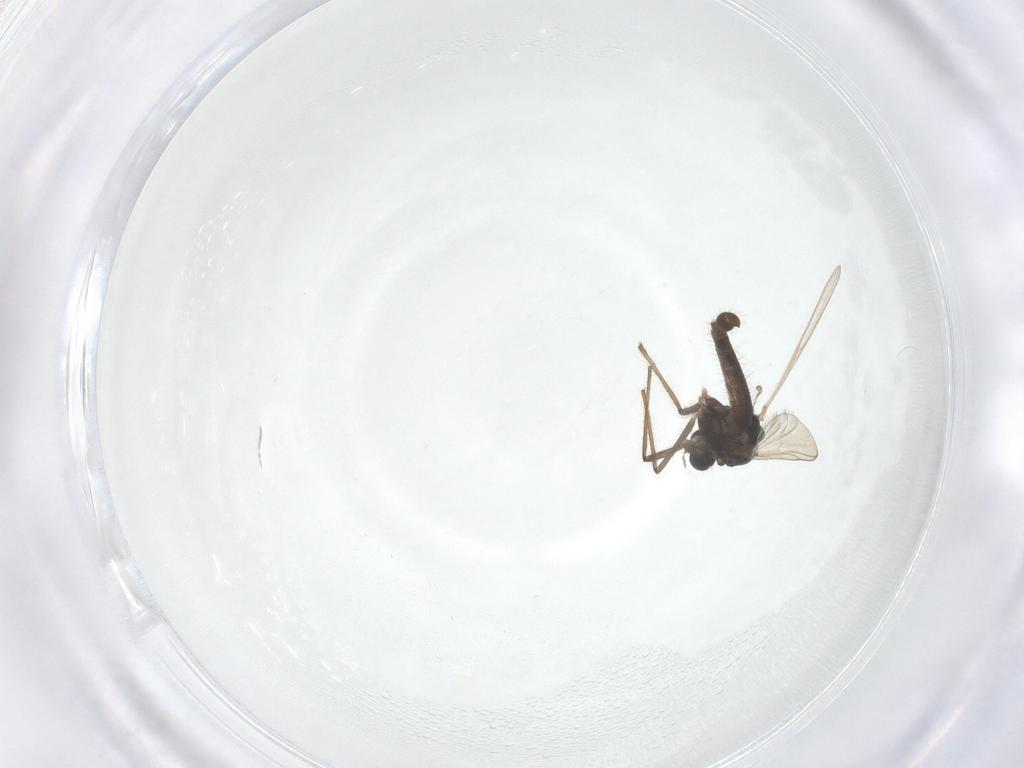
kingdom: Animalia
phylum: Arthropoda
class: Insecta
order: Diptera
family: Chironomidae
